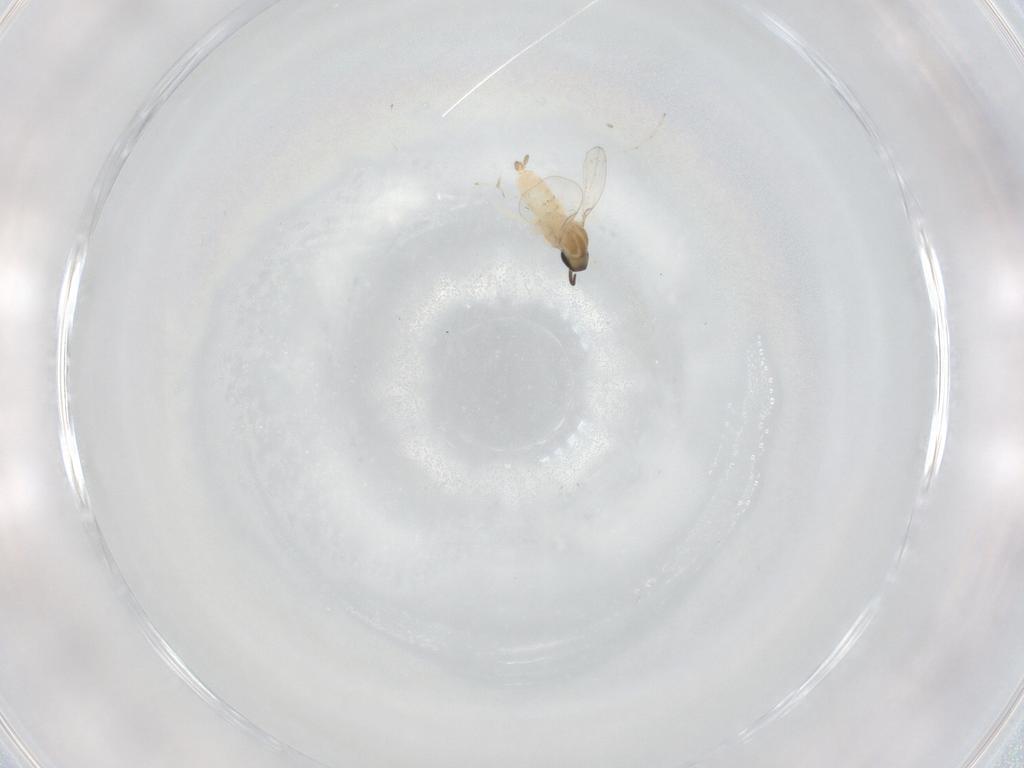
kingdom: Animalia
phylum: Arthropoda
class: Insecta
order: Diptera
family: Cecidomyiidae
